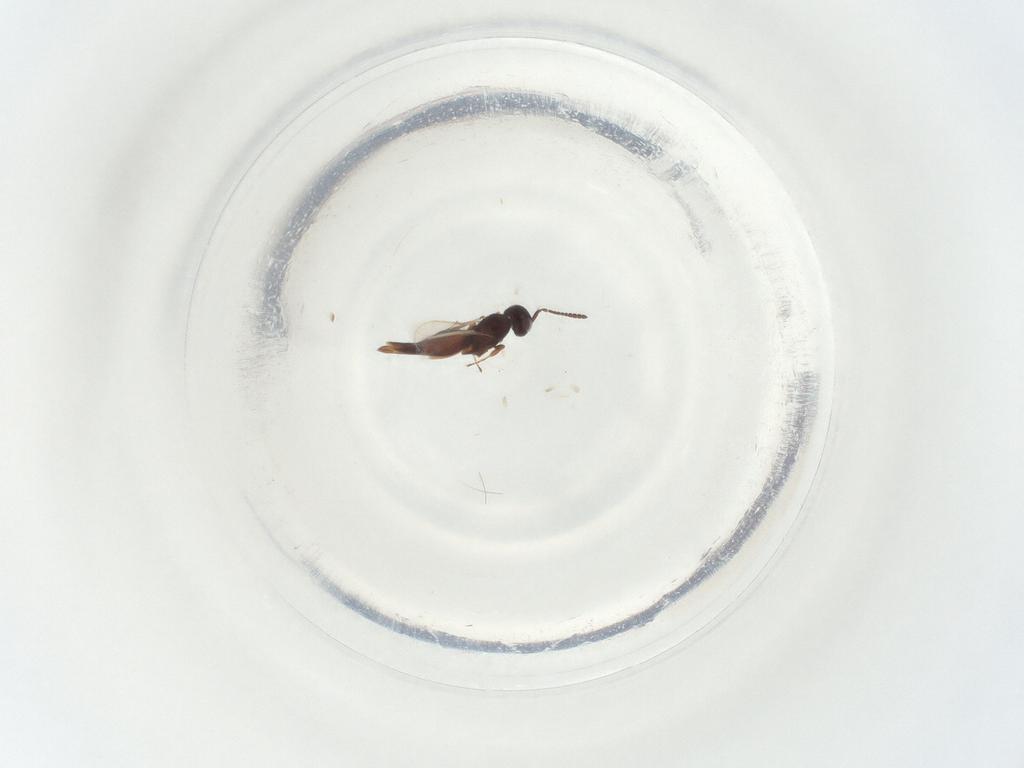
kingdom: Animalia
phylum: Arthropoda
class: Insecta
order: Hymenoptera
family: Scelionidae
